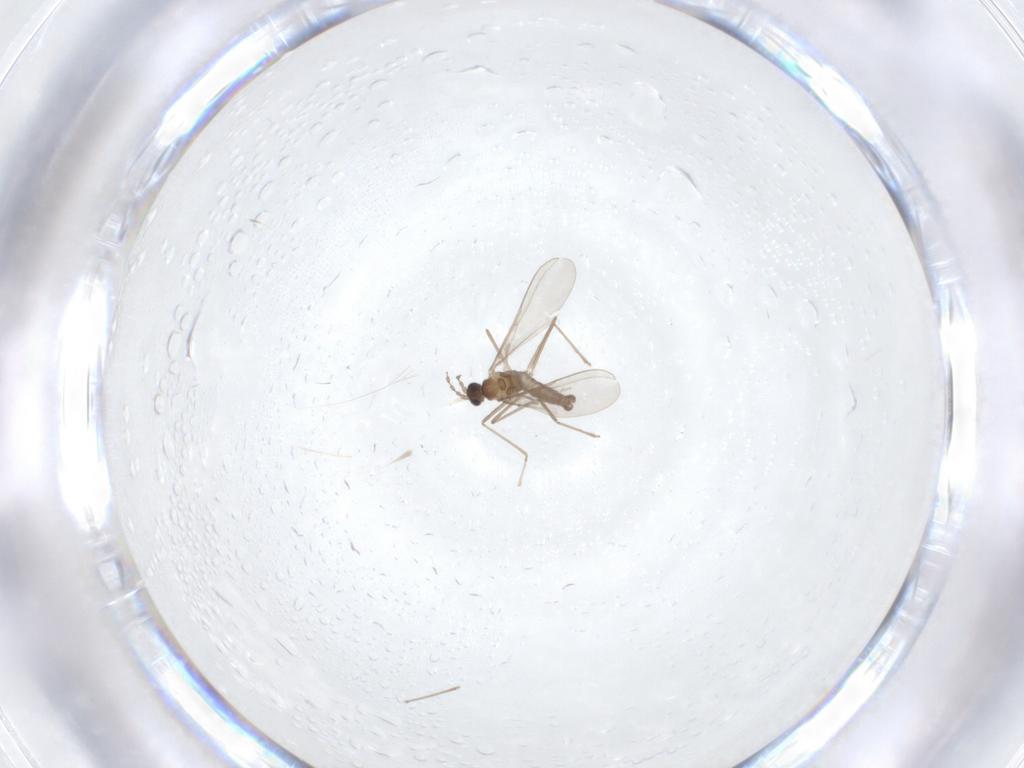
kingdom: Animalia
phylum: Arthropoda
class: Insecta
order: Diptera
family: Cecidomyiidae
